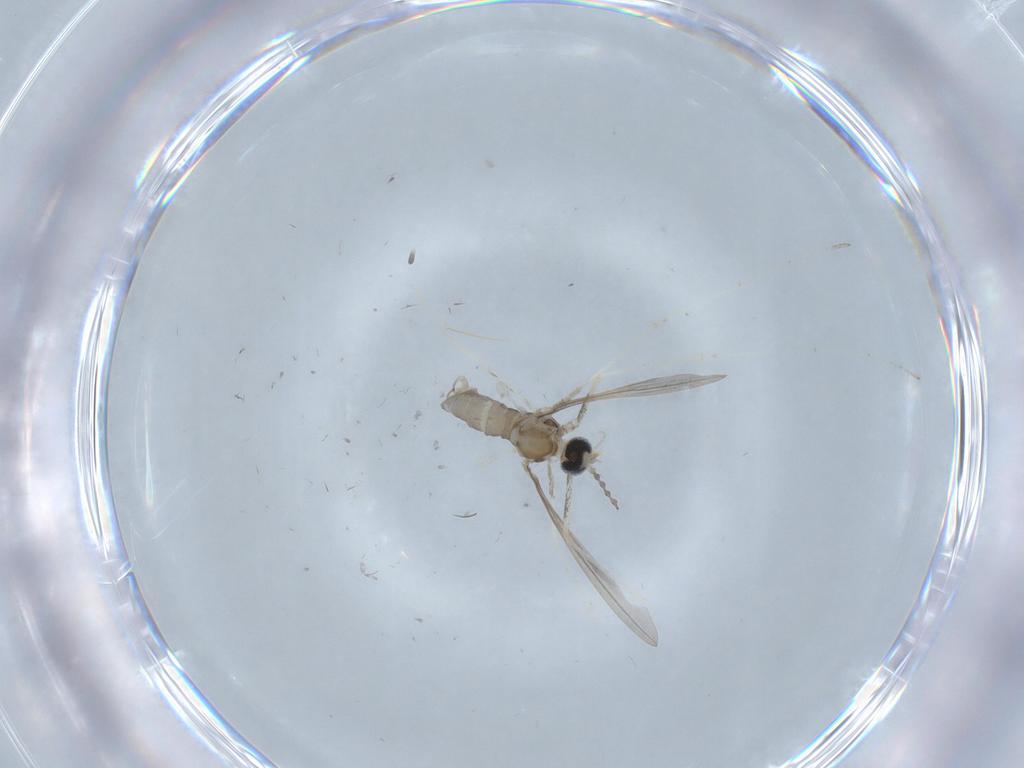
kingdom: Animalia
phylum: Arthropoda
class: Insecta
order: Diptera
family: Cecidomyiidae
